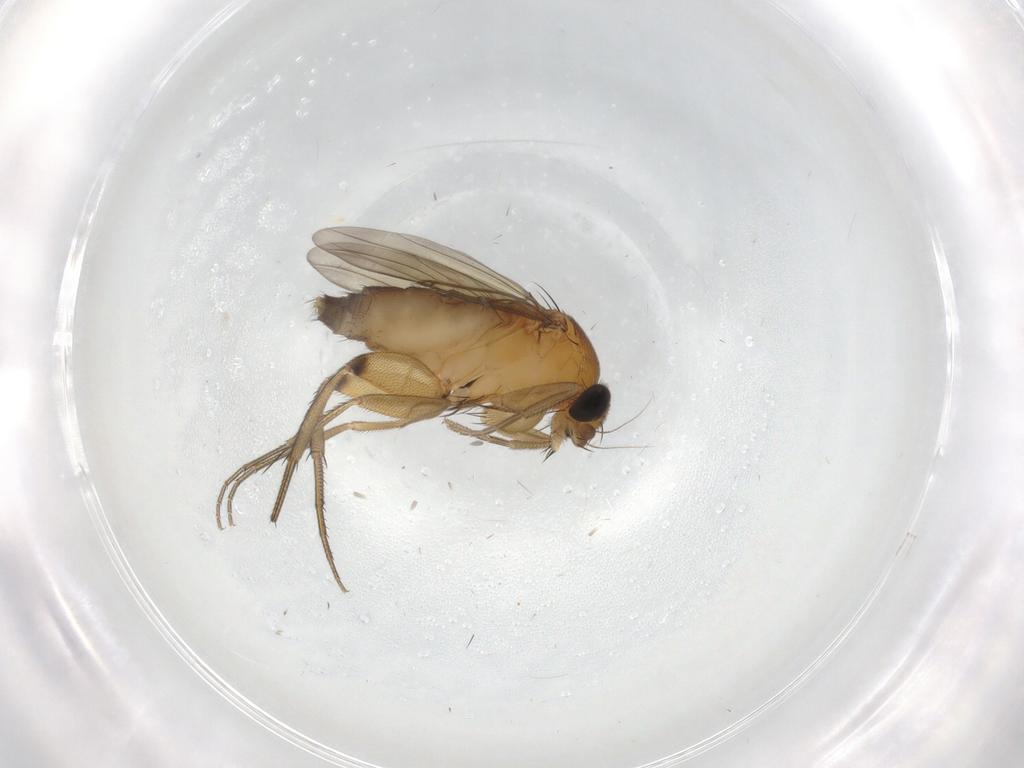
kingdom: Animalia
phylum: Arthropoda
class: Insecta
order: Diptera
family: Phoridae
